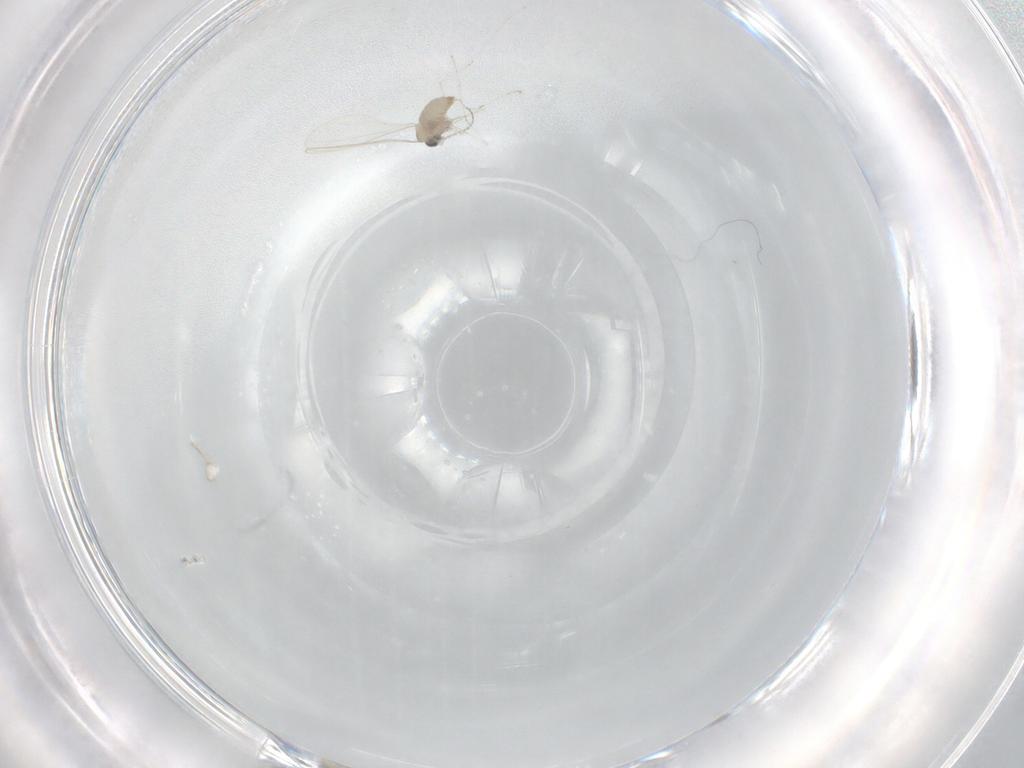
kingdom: Animalia
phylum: Arthropoda
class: Insecta
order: Diptera
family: Cecidomyiidae
